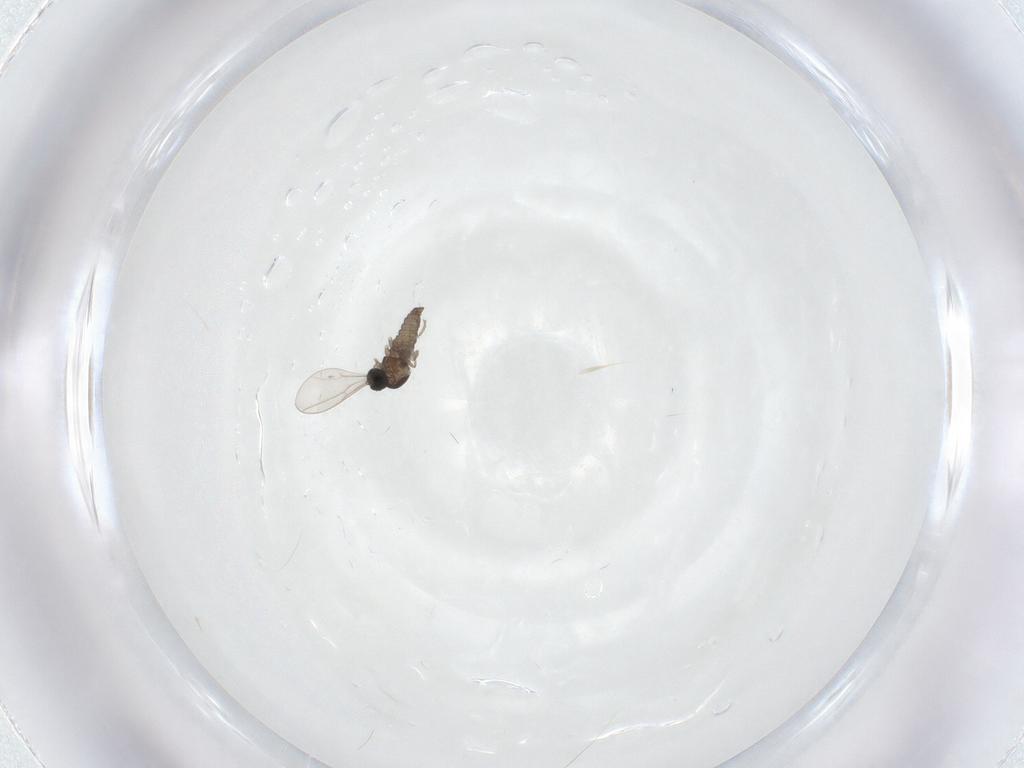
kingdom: Animalia
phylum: Arthropoda
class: Insecta
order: Diptera
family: Cecidomyiidae
